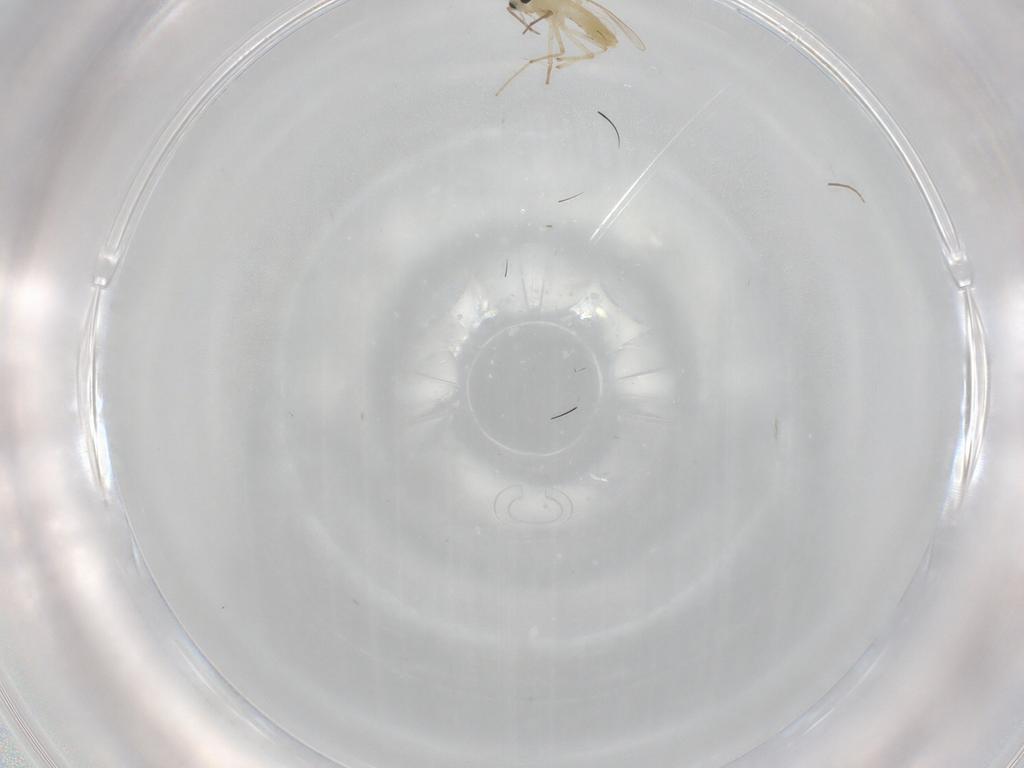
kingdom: Animalia
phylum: Arthropoda
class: Insecta
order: Diptera
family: Chironomidae
